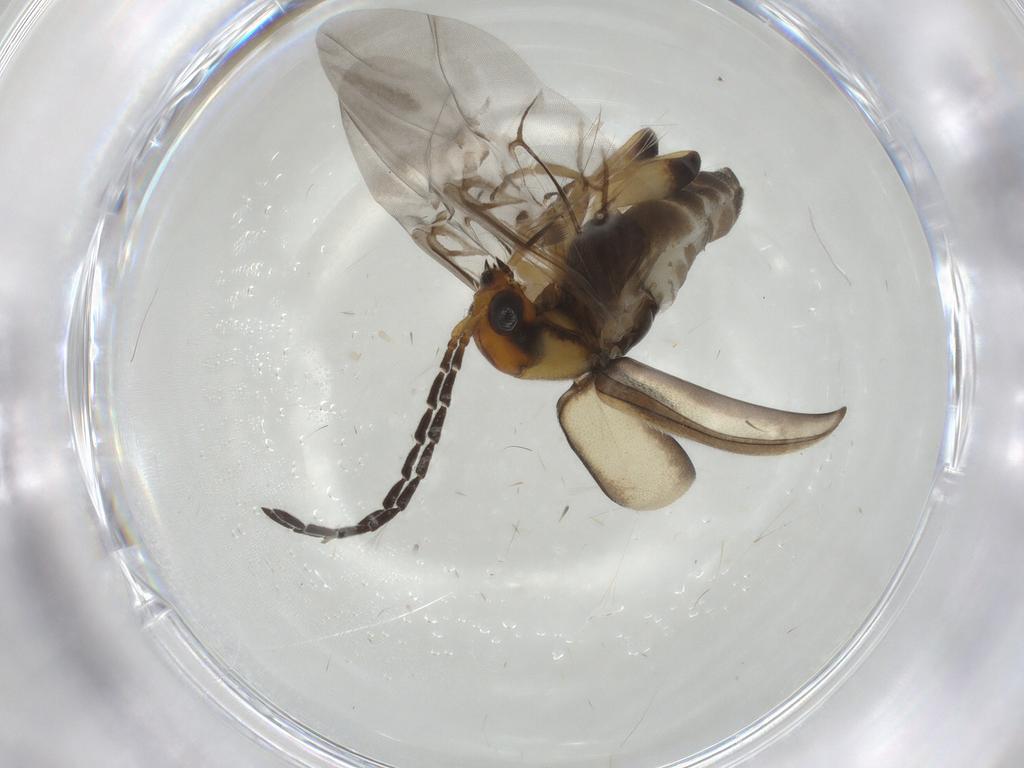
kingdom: Animalia
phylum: Arthropoda
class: Insecta
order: Coleoptera
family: Chrysomelidae
